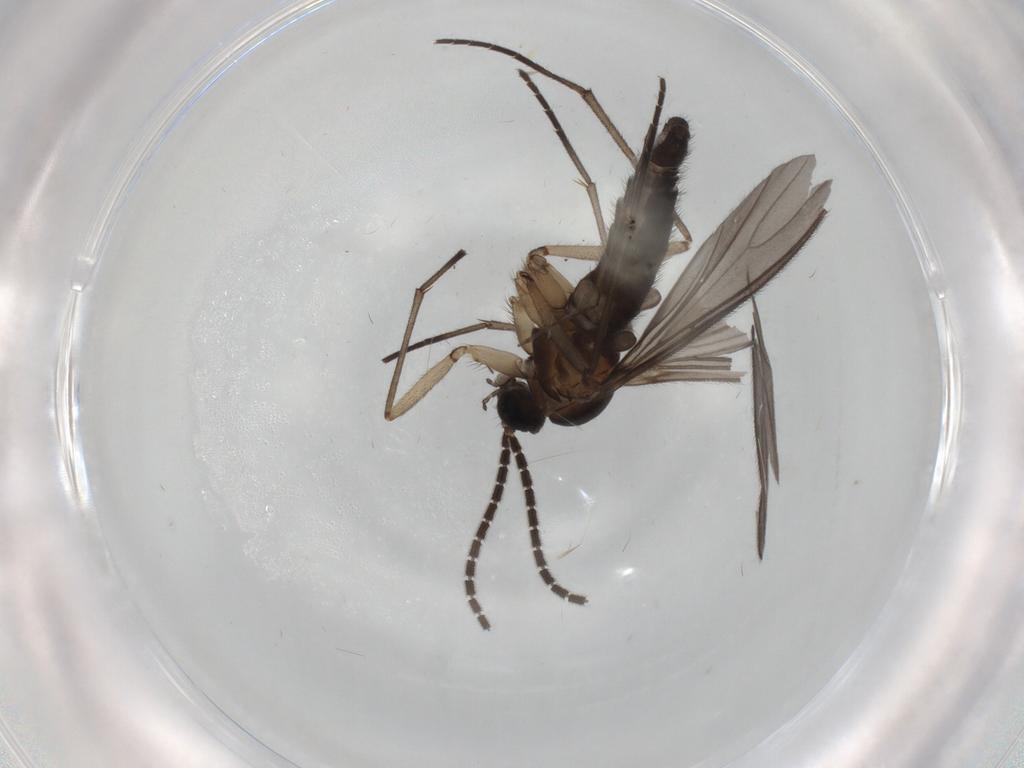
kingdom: Animalia
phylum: Arthropoda
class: Insecta
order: Diptera
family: Sciaridae
